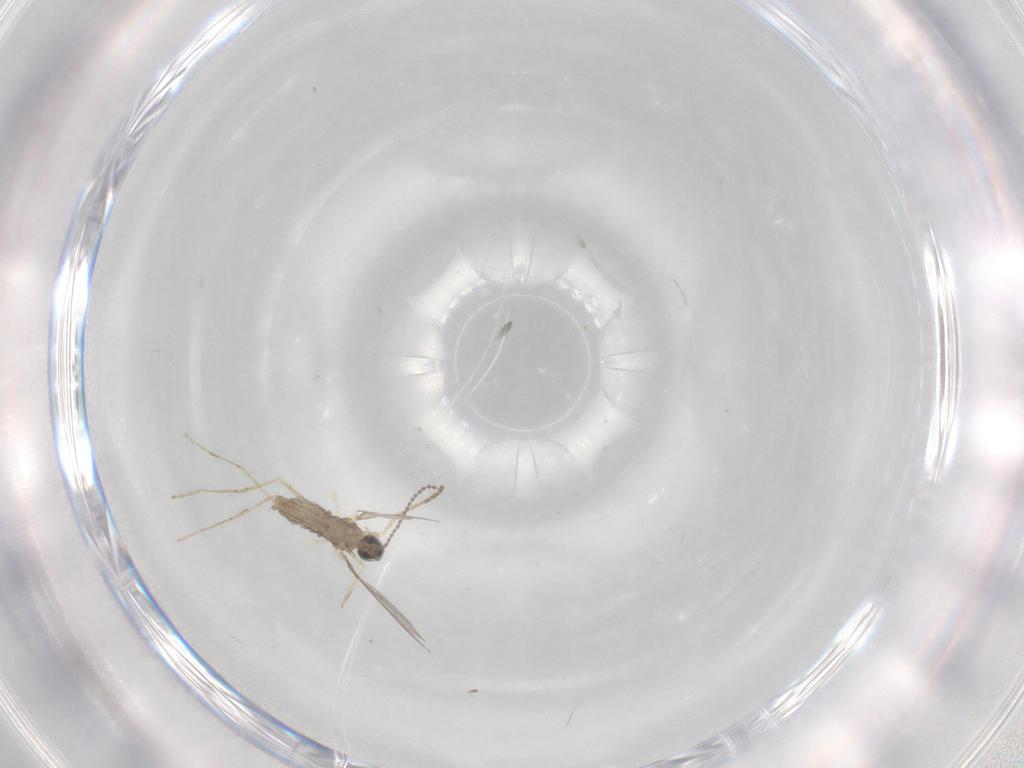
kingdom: Animalia
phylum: Arthropoda
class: Insecta
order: Diptera
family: Cecidomyiidae
